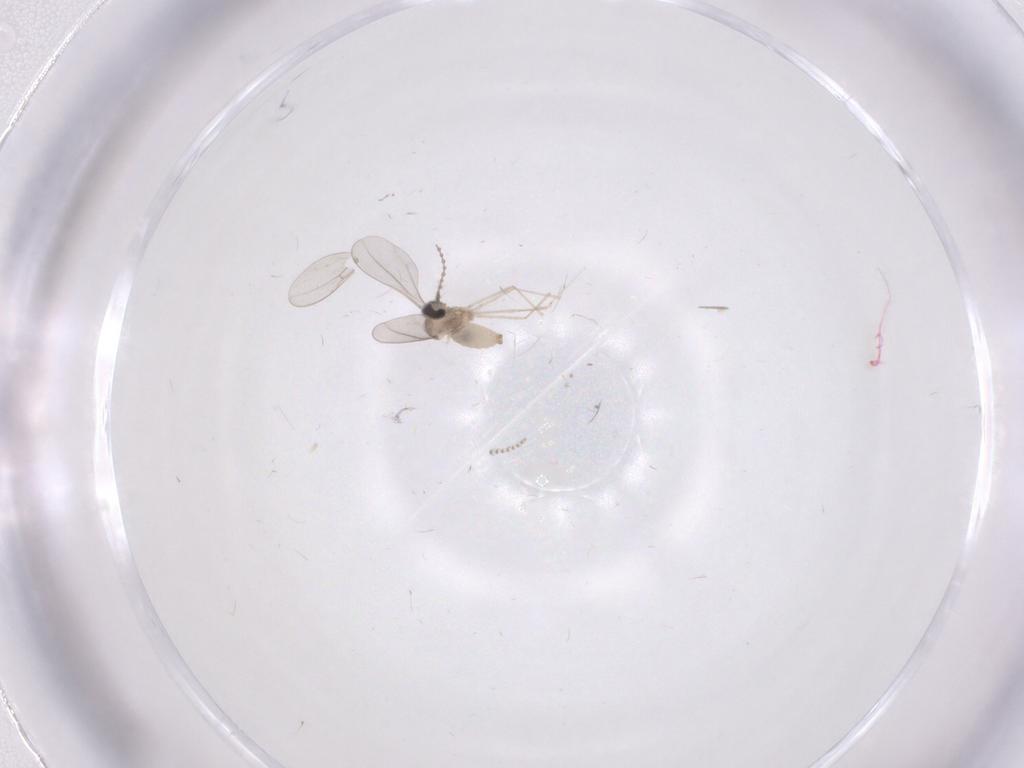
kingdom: Animalia
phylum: Arthropoda
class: Insecta
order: Diptera
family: Cecidomyiidae
